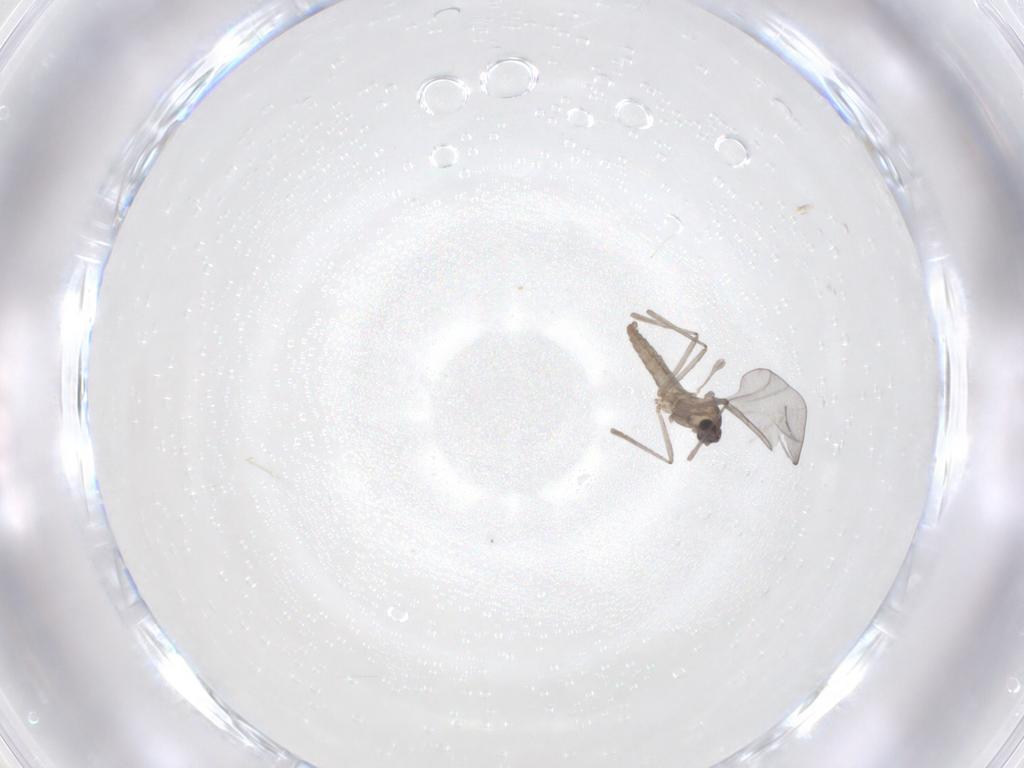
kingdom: Animalia
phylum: Arthropoda
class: Insecta
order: Diptera
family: Cecidomyiidae
